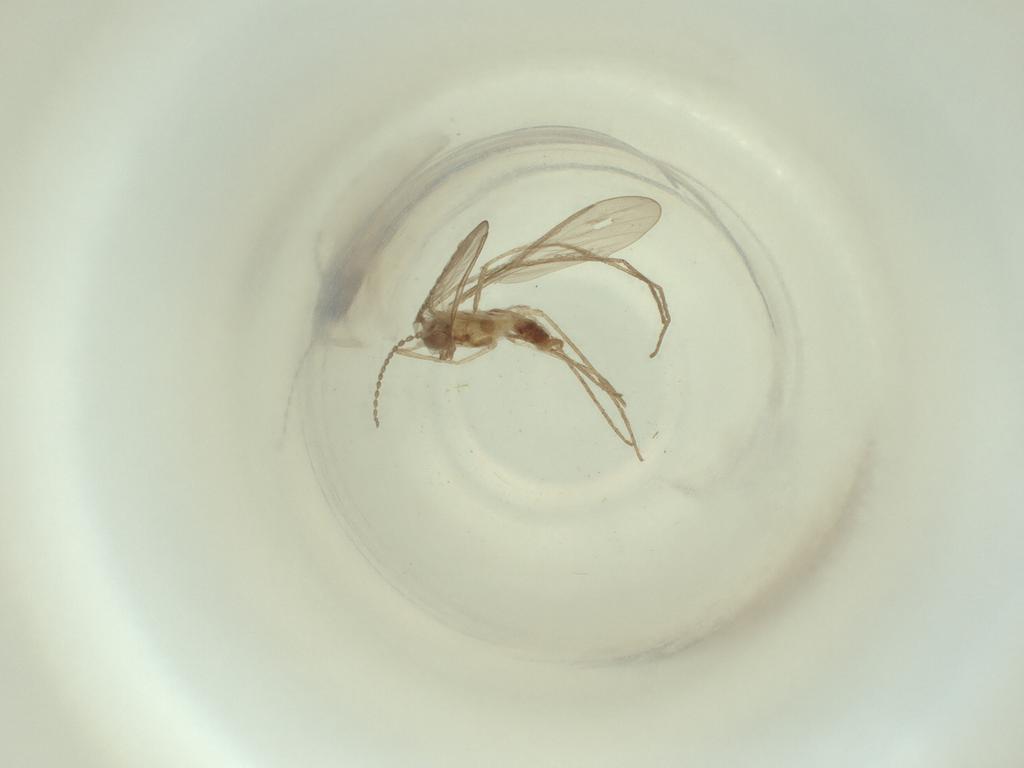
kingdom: Animalia
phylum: Arthropoda
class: Insecta
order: Diptera
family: Cecidomyiidae
